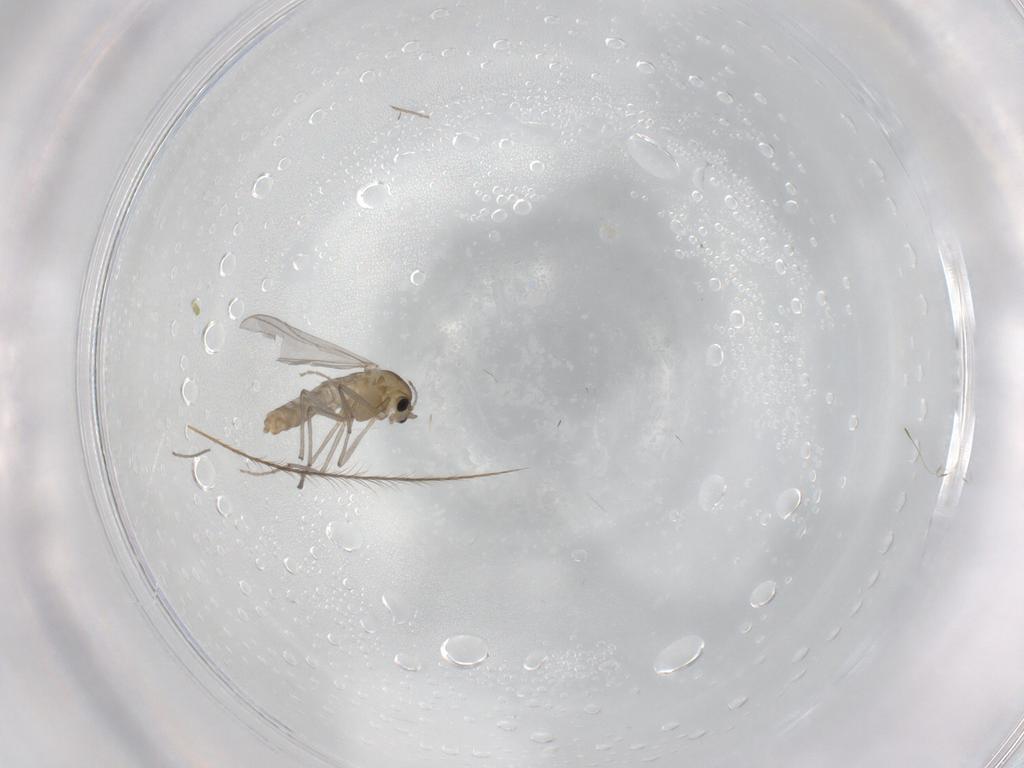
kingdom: Animalia
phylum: Arthropoda
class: Insecta
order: Diptera
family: Chironomidae
